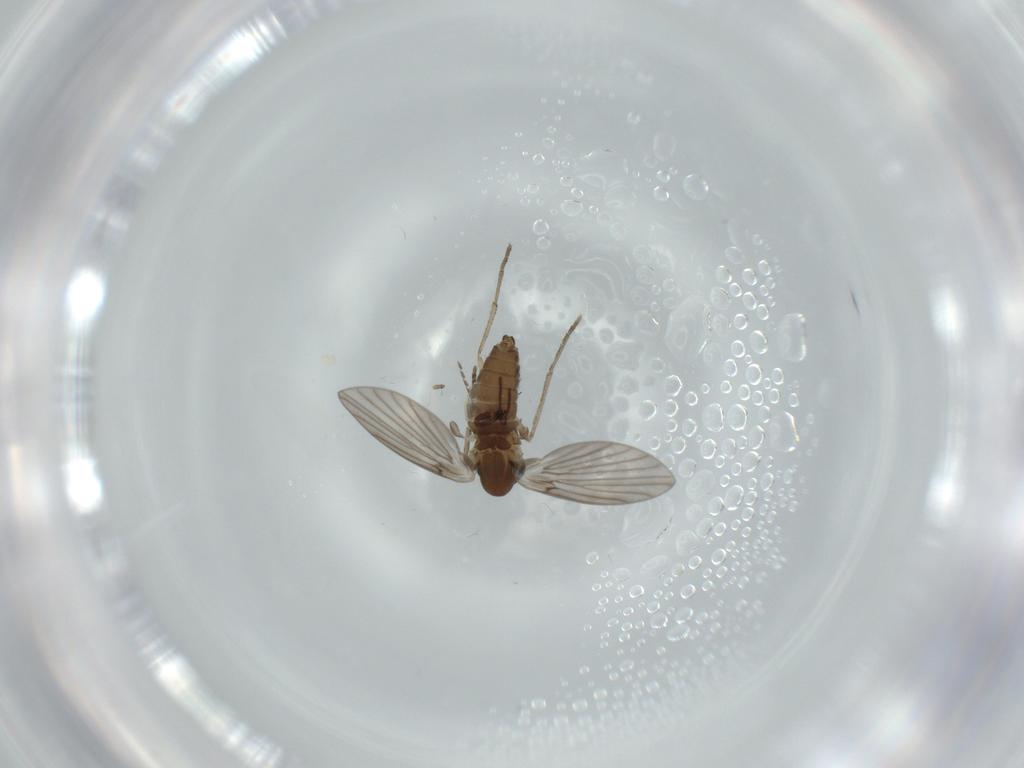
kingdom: Animalia
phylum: Arthropoda
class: Insecta
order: Diptera
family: Psychodidae
